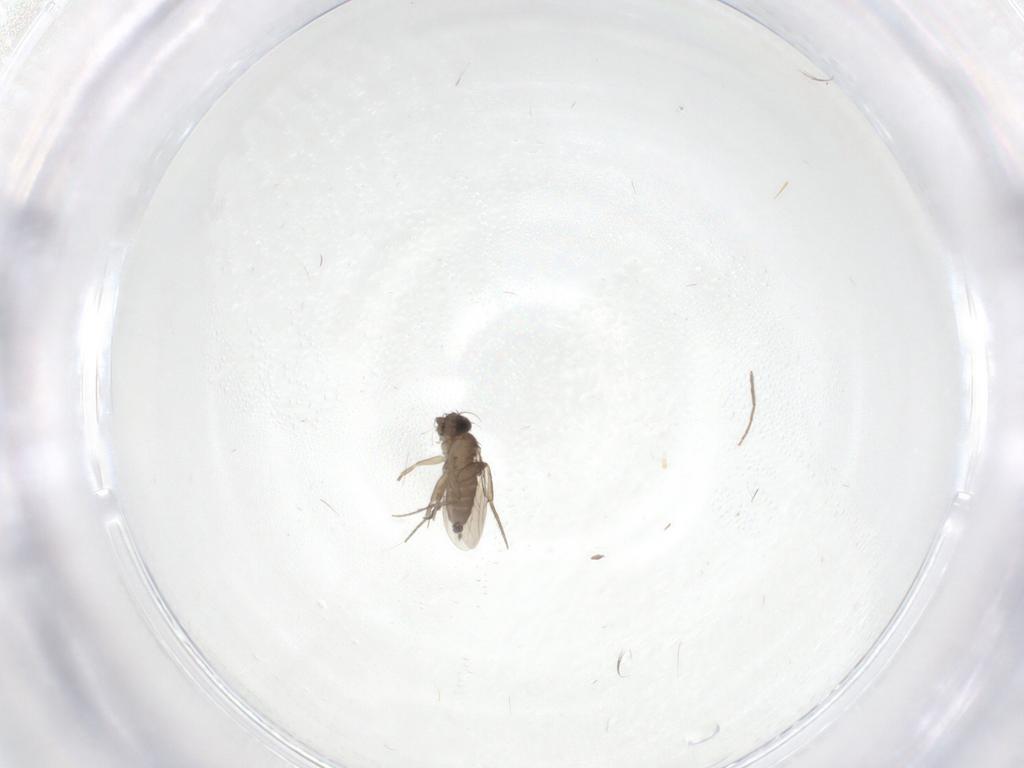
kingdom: Animalia
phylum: Arthropoda
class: Insecta
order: Diptera
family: Phoridae
